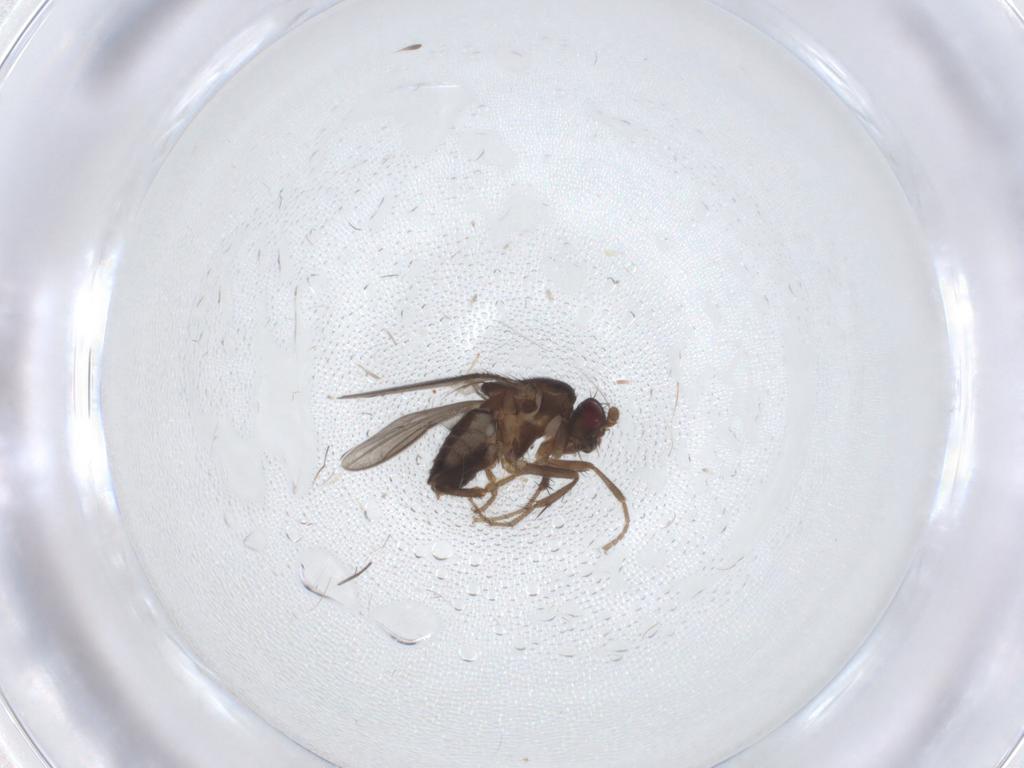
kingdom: Animalia
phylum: Arthropoda
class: Insecta
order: Diptera
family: Sphaeroceridae
